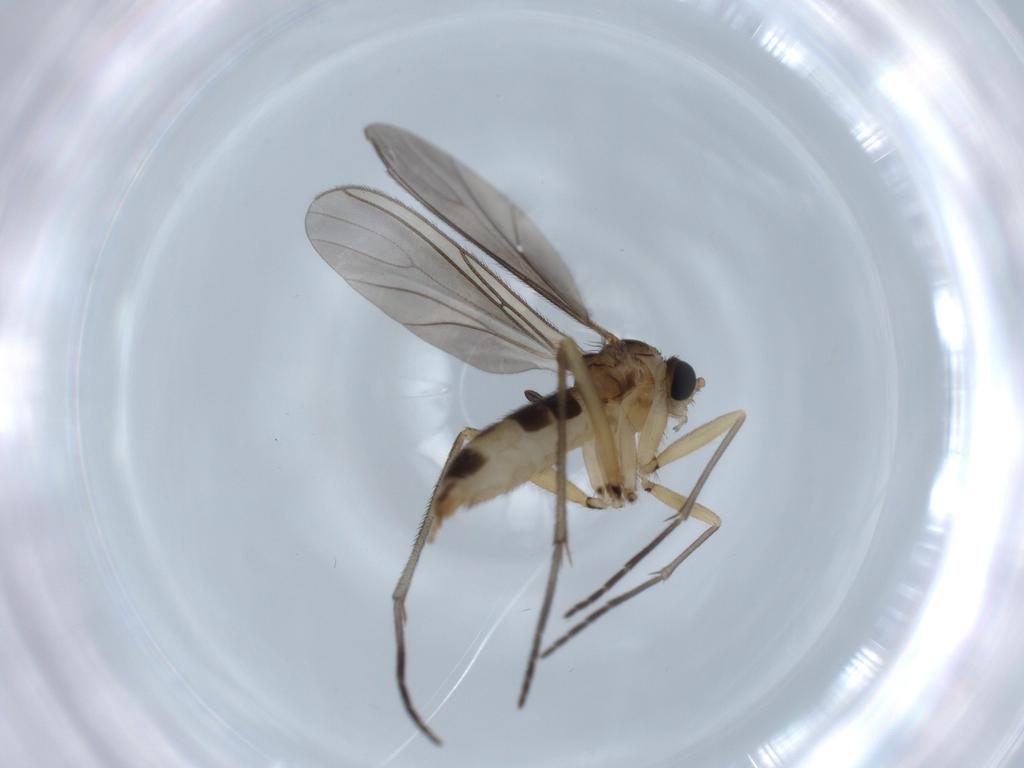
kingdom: Animalia
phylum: Arthropoda
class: Insecta
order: Diptera
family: Sciaridae
